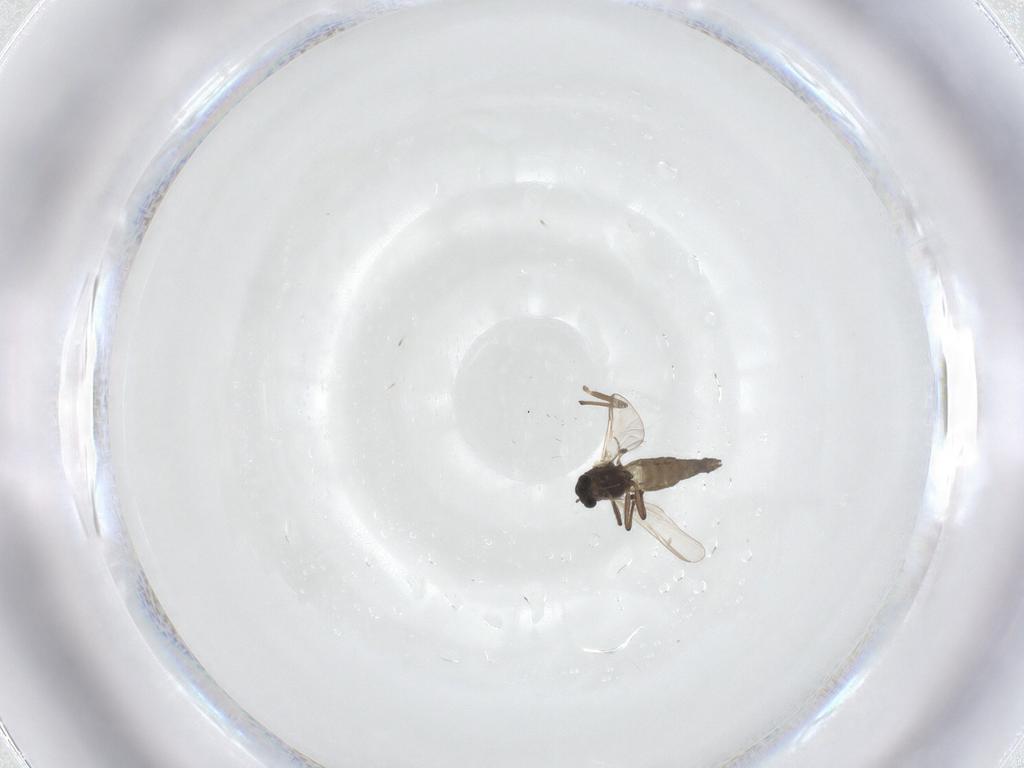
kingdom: Animalia
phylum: Arthropoda
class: Insecta
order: Diptera
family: Chironomidae
